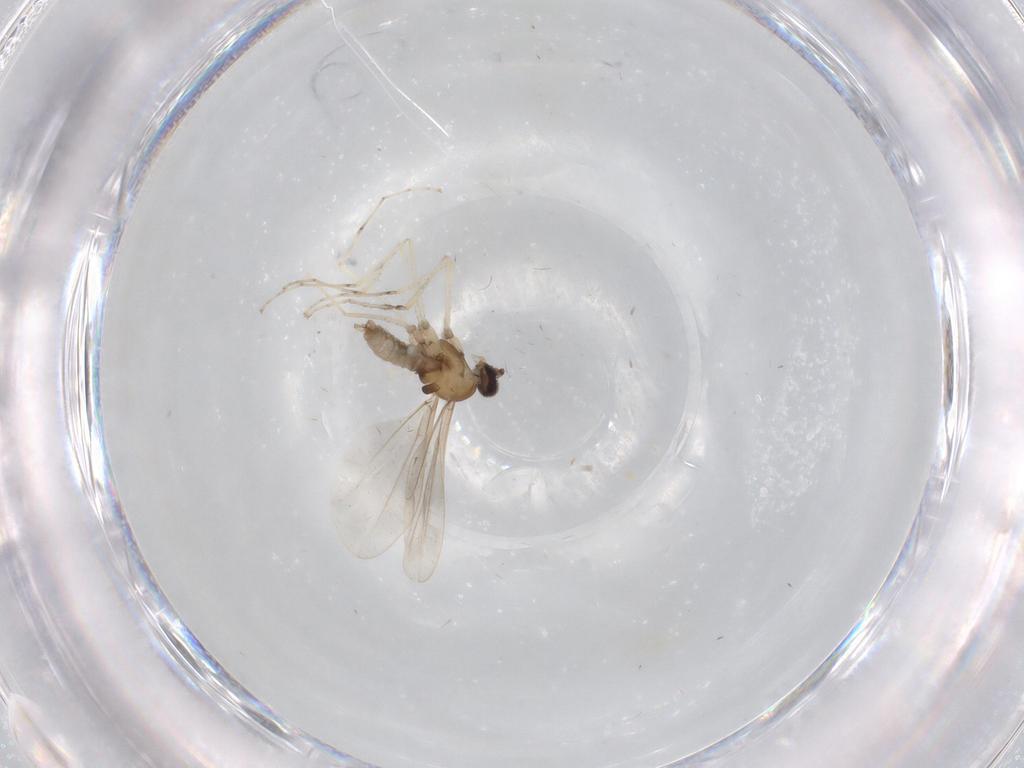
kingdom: Animalia
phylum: Arthropoda
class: Insecta
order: Diptera
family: Cecidomyiidae
